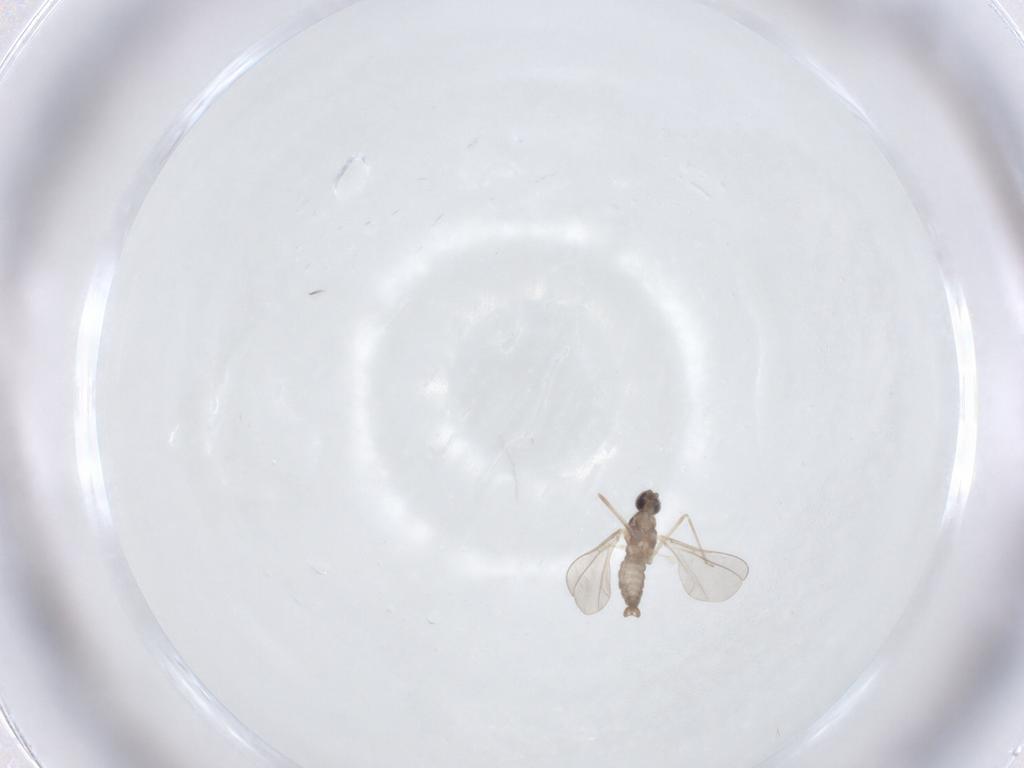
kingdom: Animalia
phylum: Arthropoda
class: Insecta
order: Diptera
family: Cecidomyiidae
